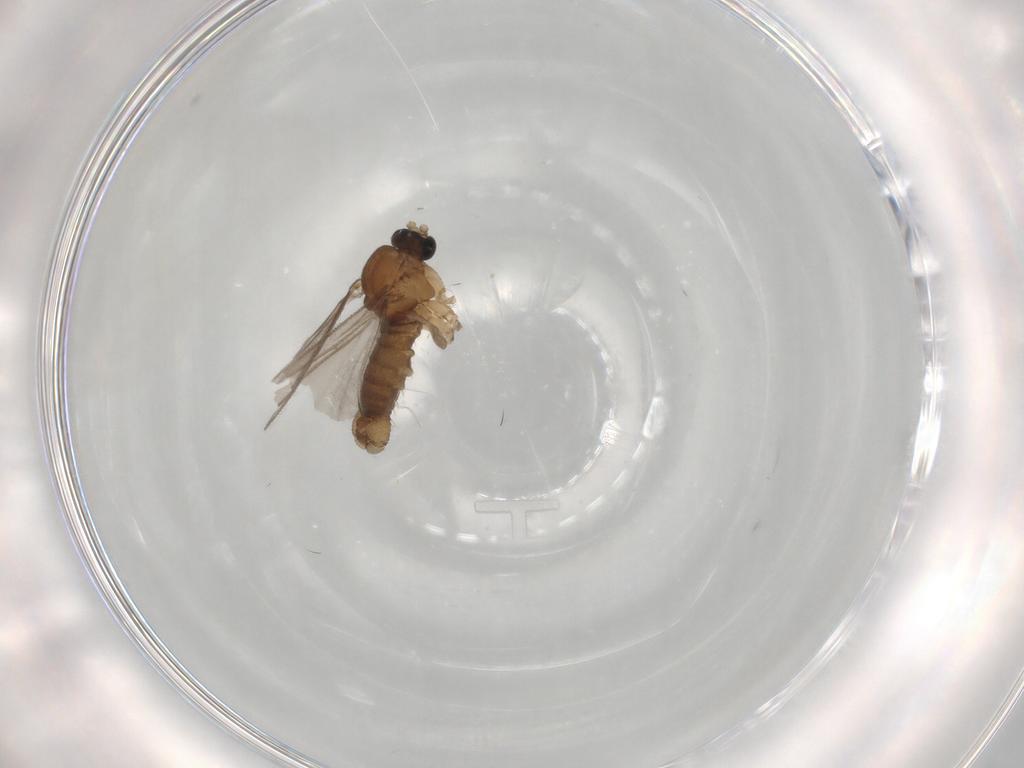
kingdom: Animalia
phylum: Arthropoda
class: Insecta
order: Diptera
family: Sciaridae
